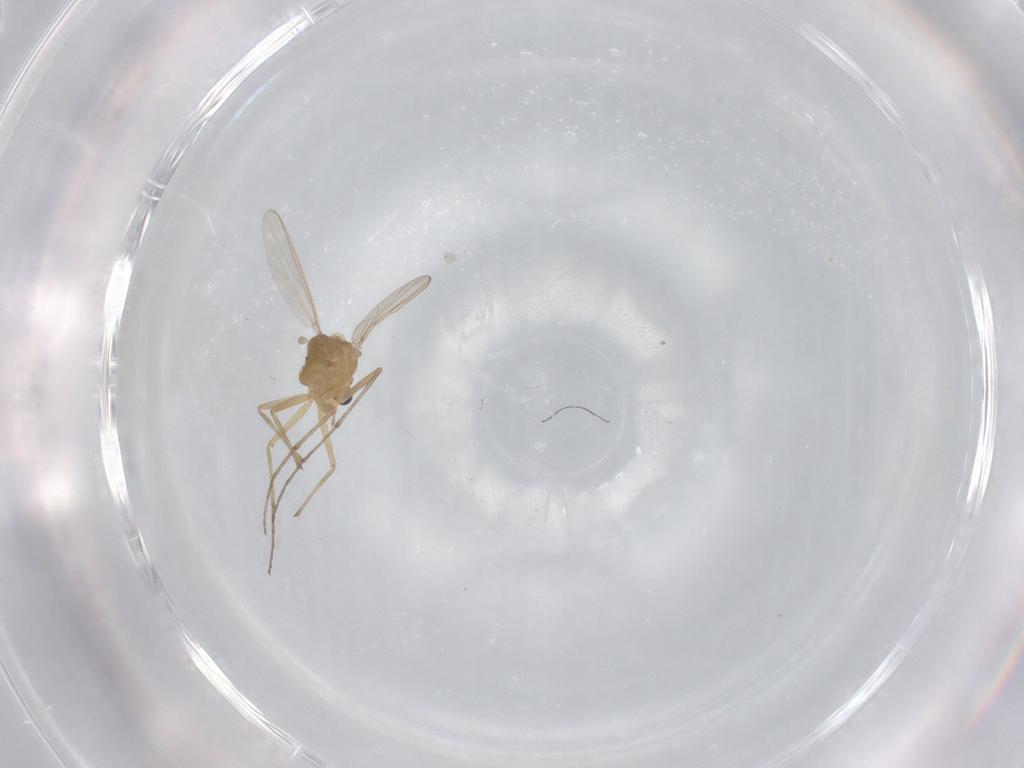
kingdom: Animalia
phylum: Arthropoda
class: Insecta
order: Diptera
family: Chironomidae
